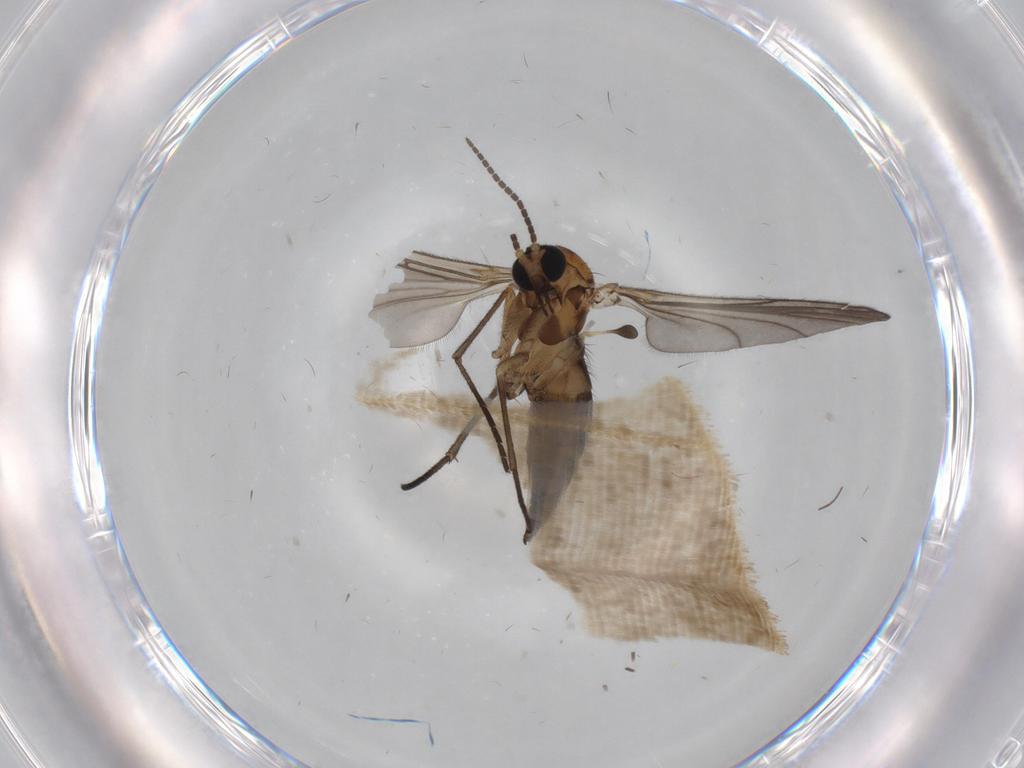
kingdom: Animalia
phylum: Arthropoda
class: Insecta
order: Diptera
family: Sciaridae
